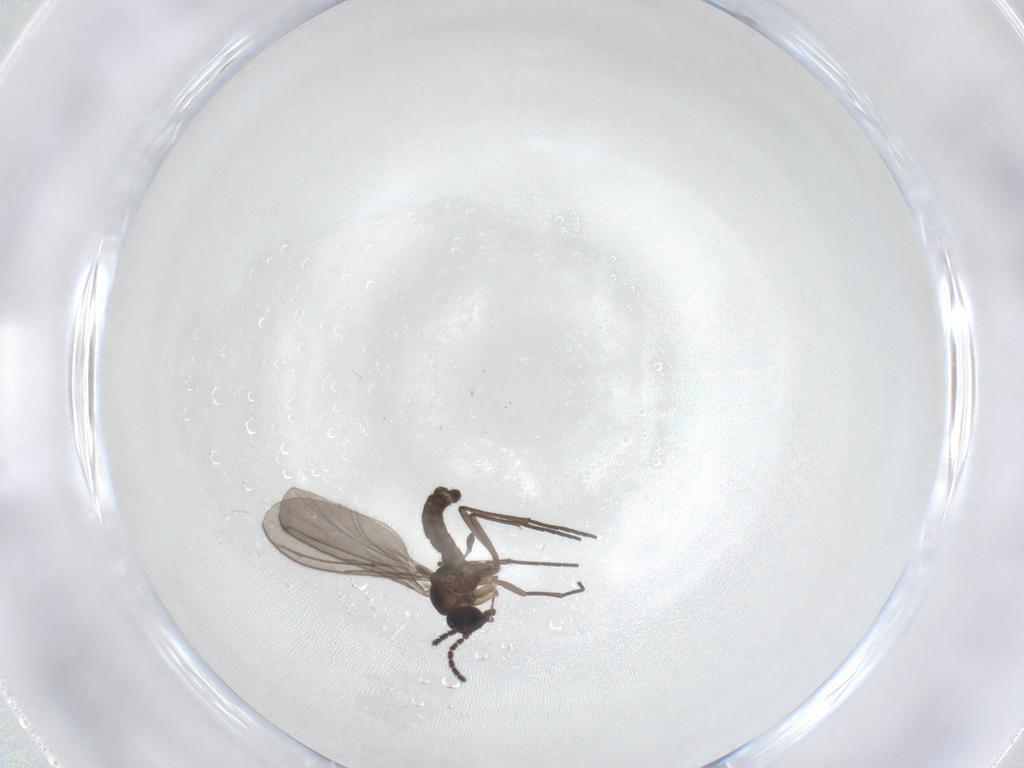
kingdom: Animalia
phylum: Arthropoda
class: Insecta
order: Diptera
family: Sciaridae
